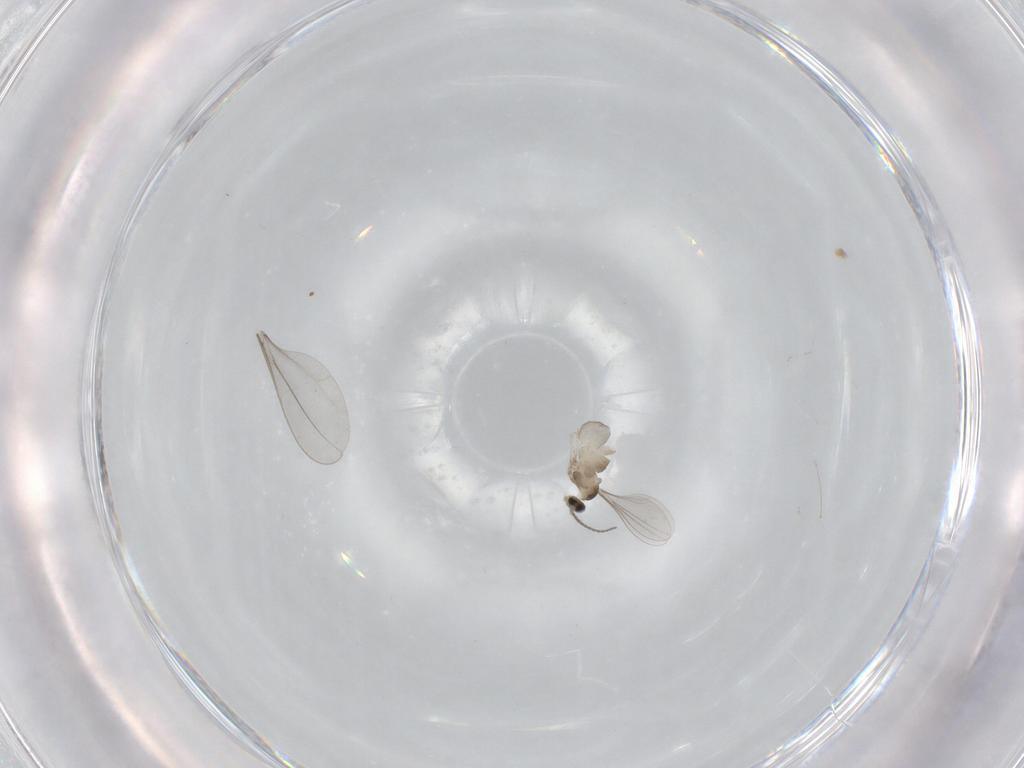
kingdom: Animalia
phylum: Arthropoda
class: Insecta
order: Diptera
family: Cecidomyiidae
